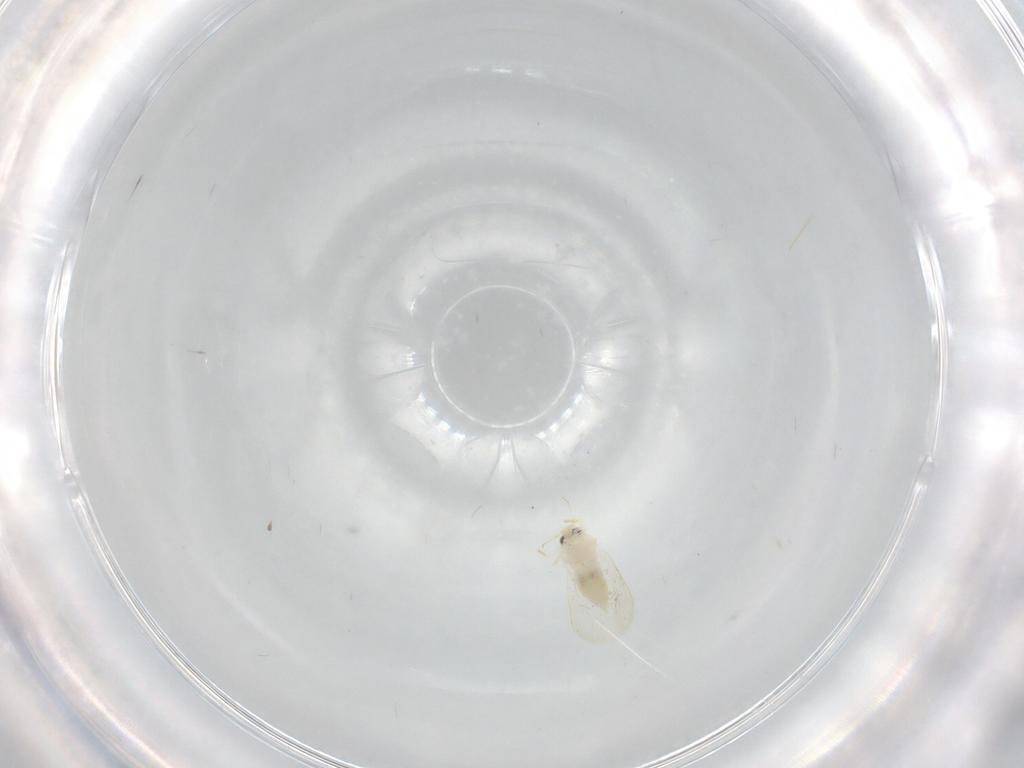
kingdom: Animalia
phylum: Arthropoda
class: Insecta
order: Hemiptera
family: Aleyrodidae
